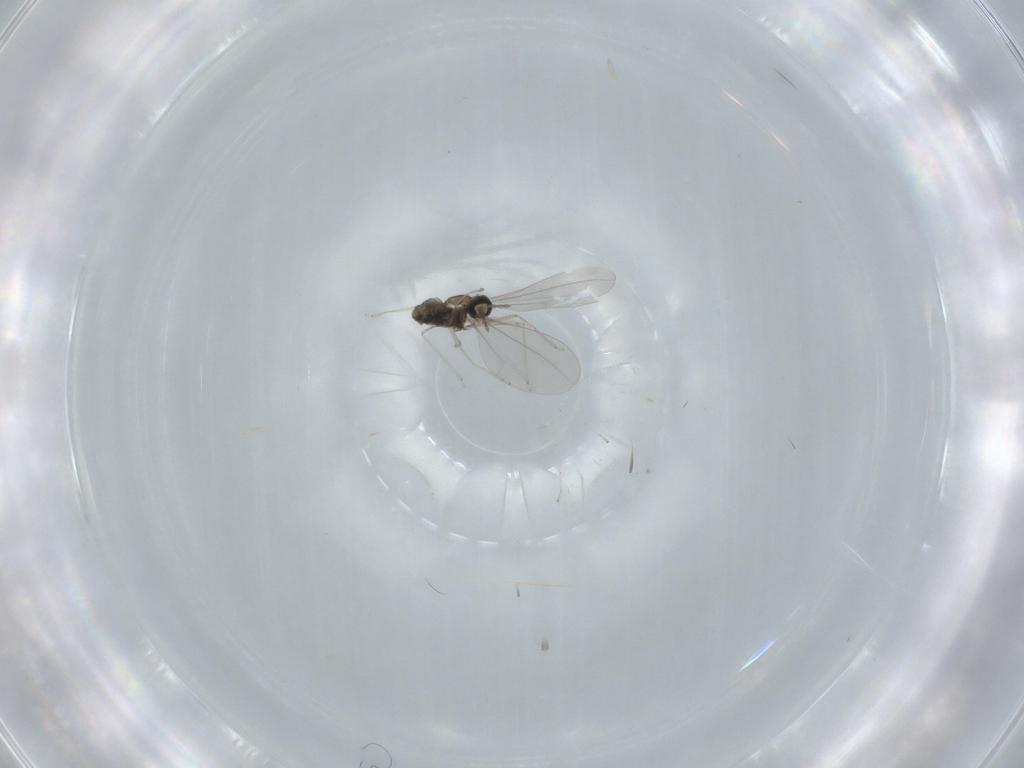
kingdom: Animalia
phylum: Arthropoda
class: Insecta
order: Diptera
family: Cecidomyiidae
